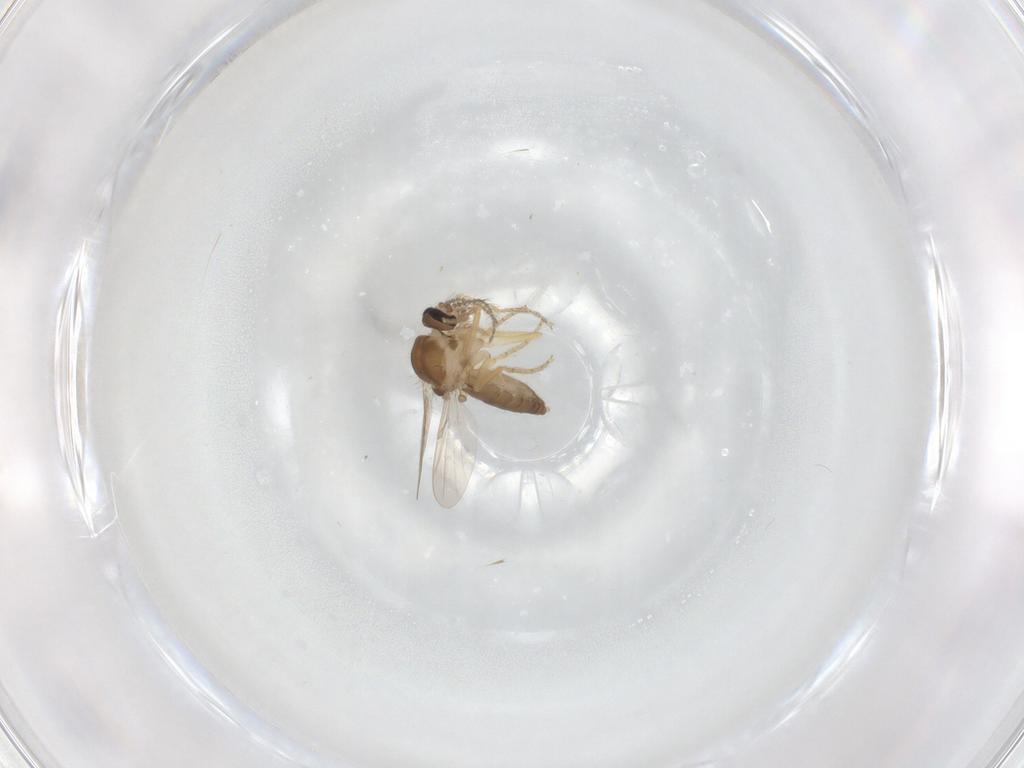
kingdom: Animalia
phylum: Arthropoda
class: Insecta
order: Diptera
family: Ceratopogonidae
